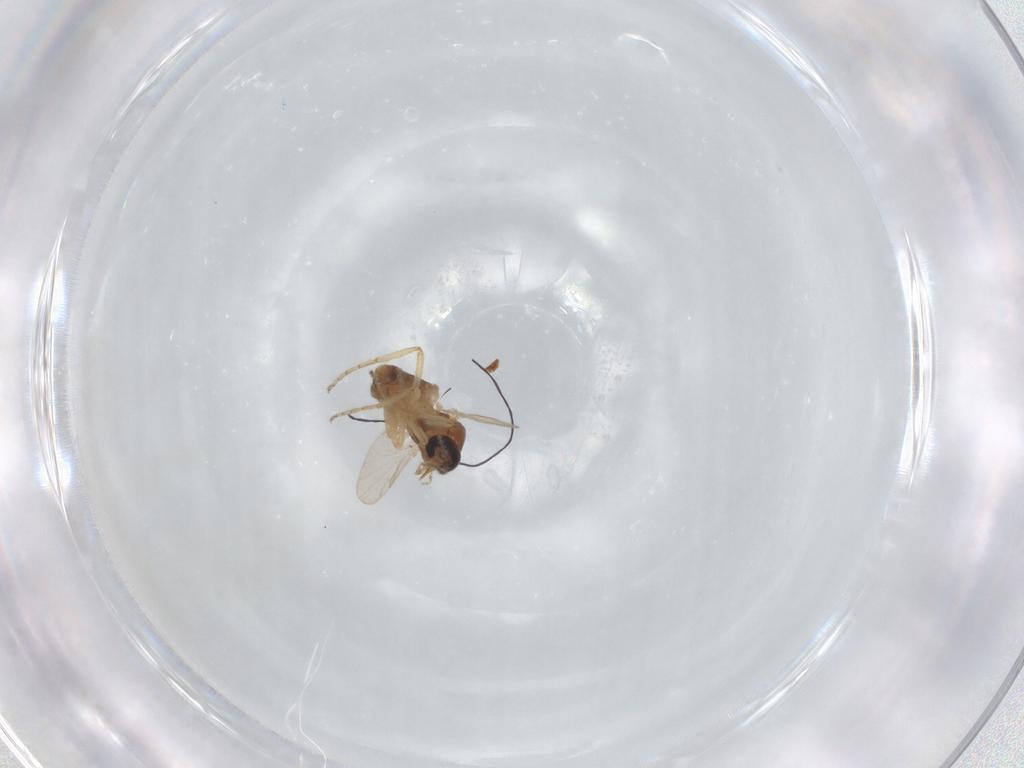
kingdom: Animalia
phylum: Arthropoda
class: Insecta
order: Diptera
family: Ceratopogonidae
